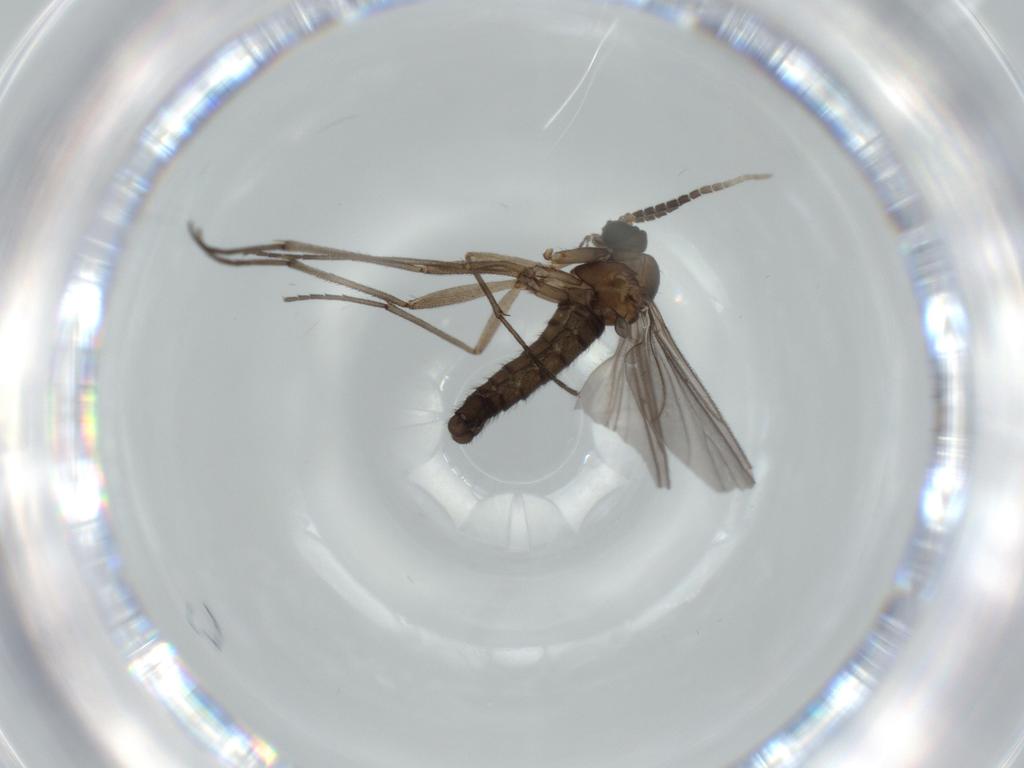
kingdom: Animalia
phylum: Arthropoda
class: Insecta
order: Diptera
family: Sciaridae
